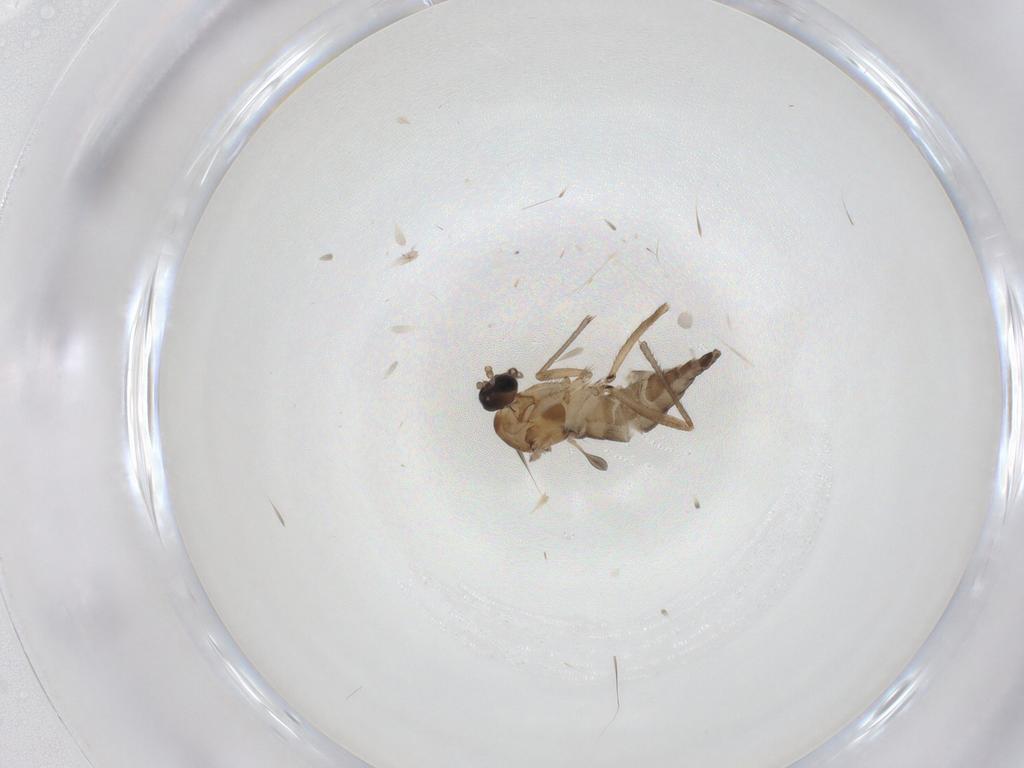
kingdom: Animalia
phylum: Arthropoda
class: Insecta
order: Diptera
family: Sciaridae
